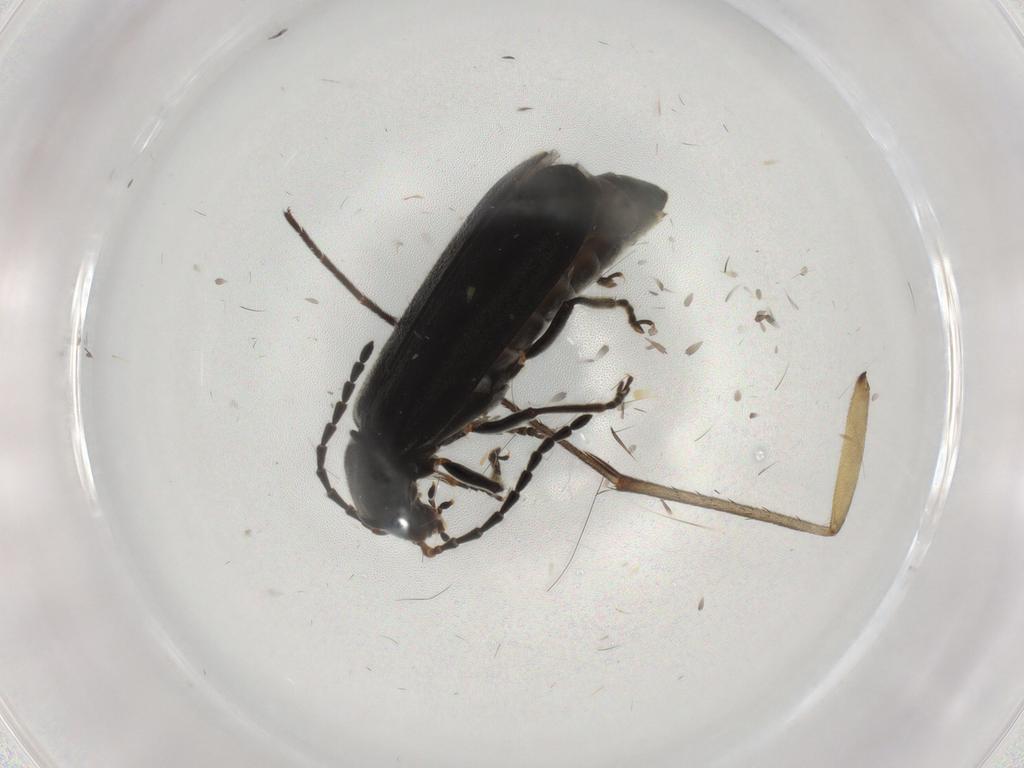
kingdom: Animalia
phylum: Arthropoda
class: Insecta
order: Coleoptera
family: Cantharidae
